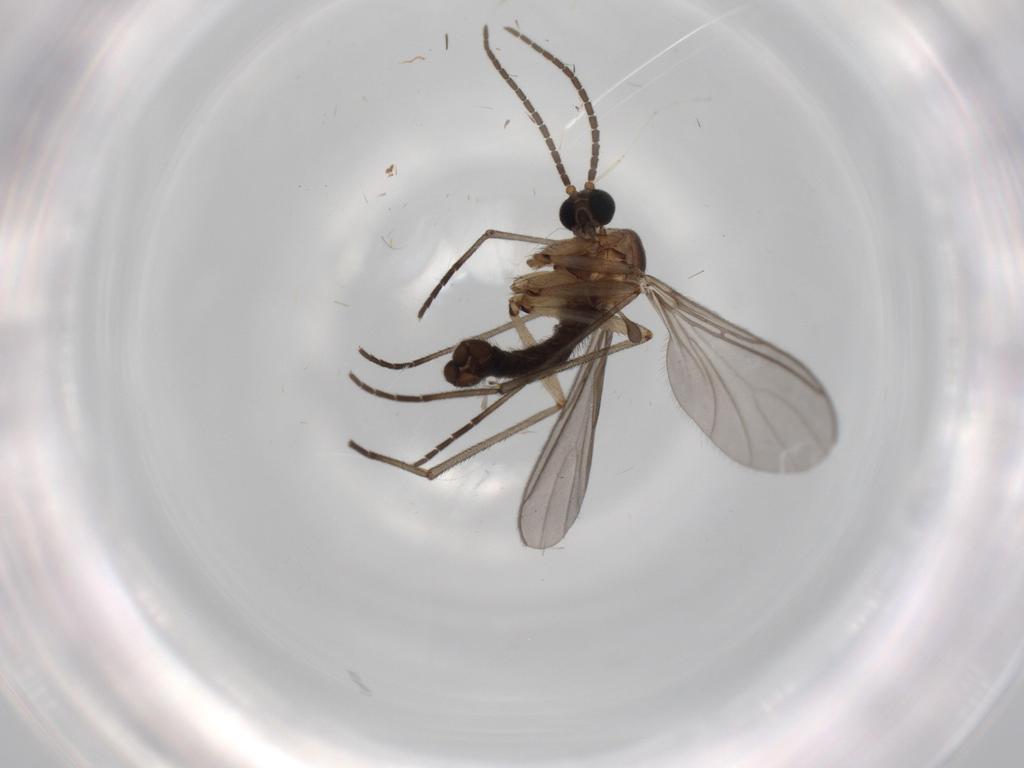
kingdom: Animalia
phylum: Arthropoda
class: Insecta
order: Diptera
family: Sciaridae
